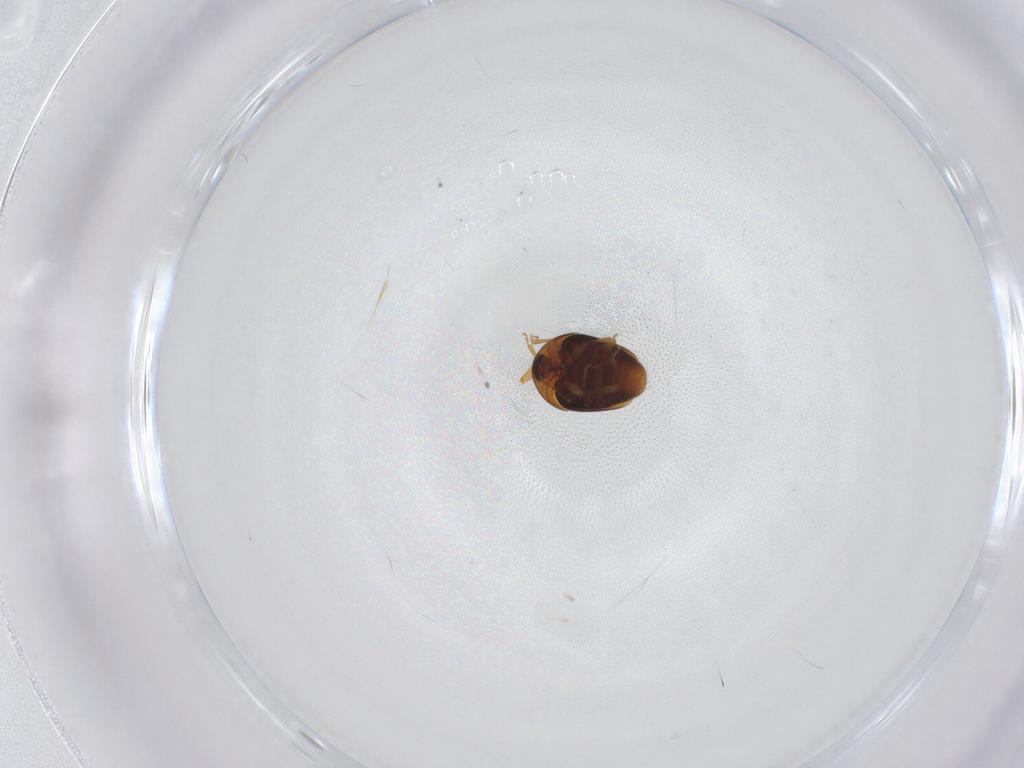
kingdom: Animalia
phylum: Arthropoda
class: Insecta
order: Coleoptera
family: Corylophidae
